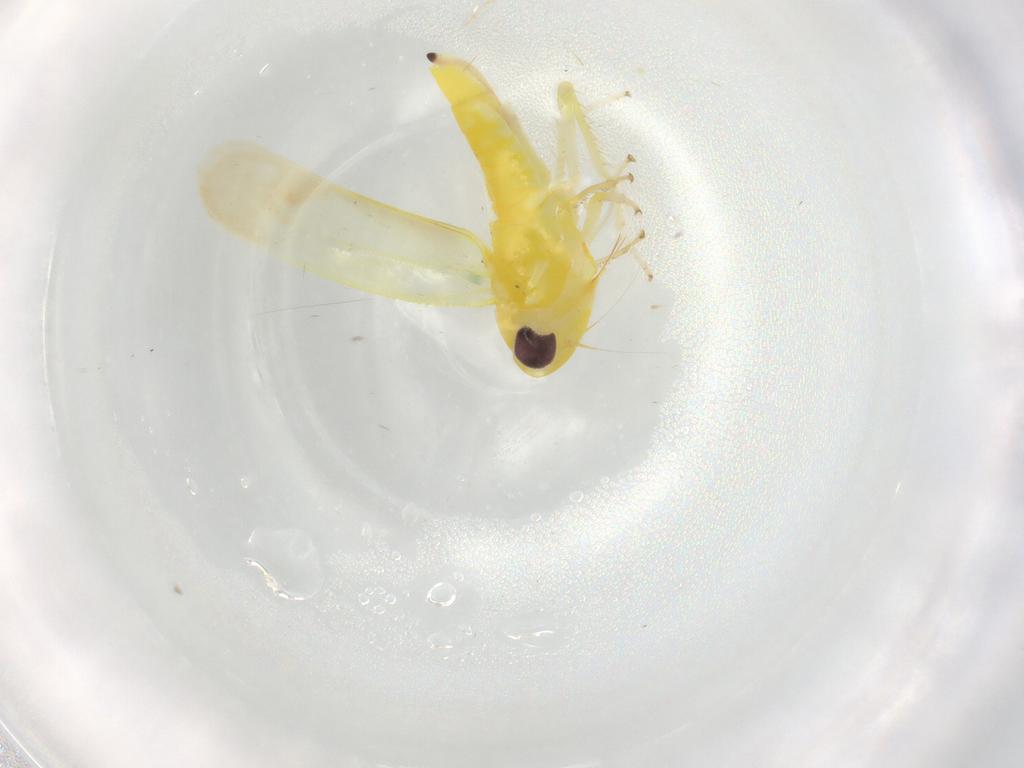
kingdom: Animalia
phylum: Arthropoda
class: Insecta
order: Hemiptera
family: Cicadellidae
